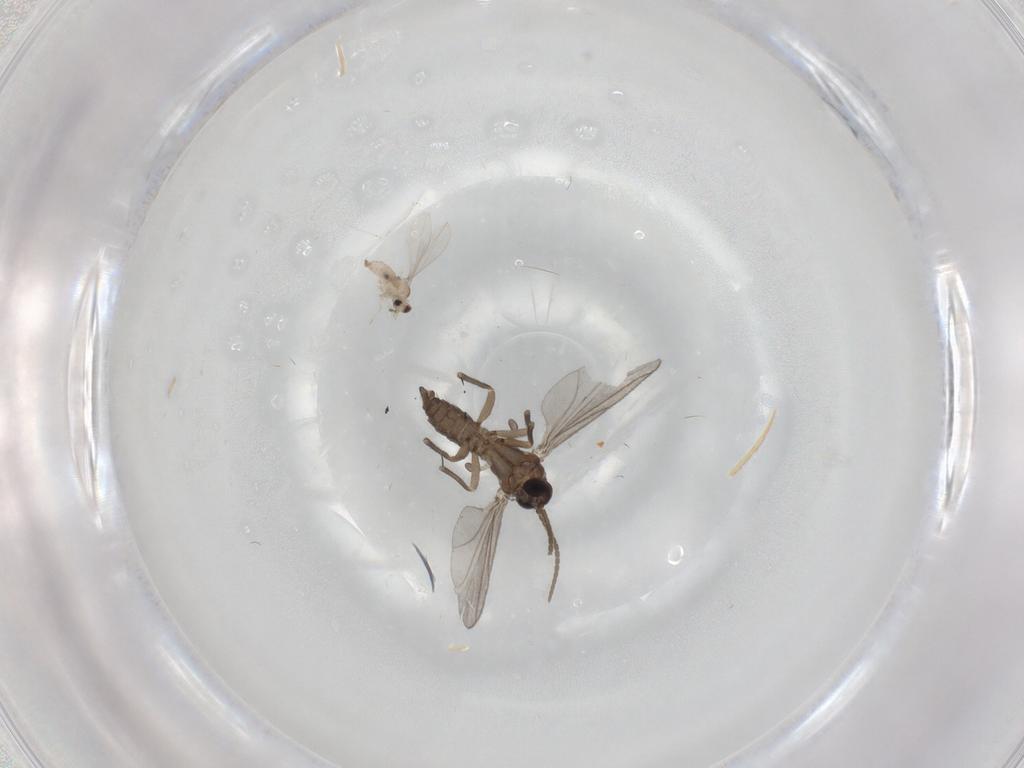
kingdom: Animalia
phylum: Arthropoda
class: Insecta
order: Diptera
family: Sciaridae
